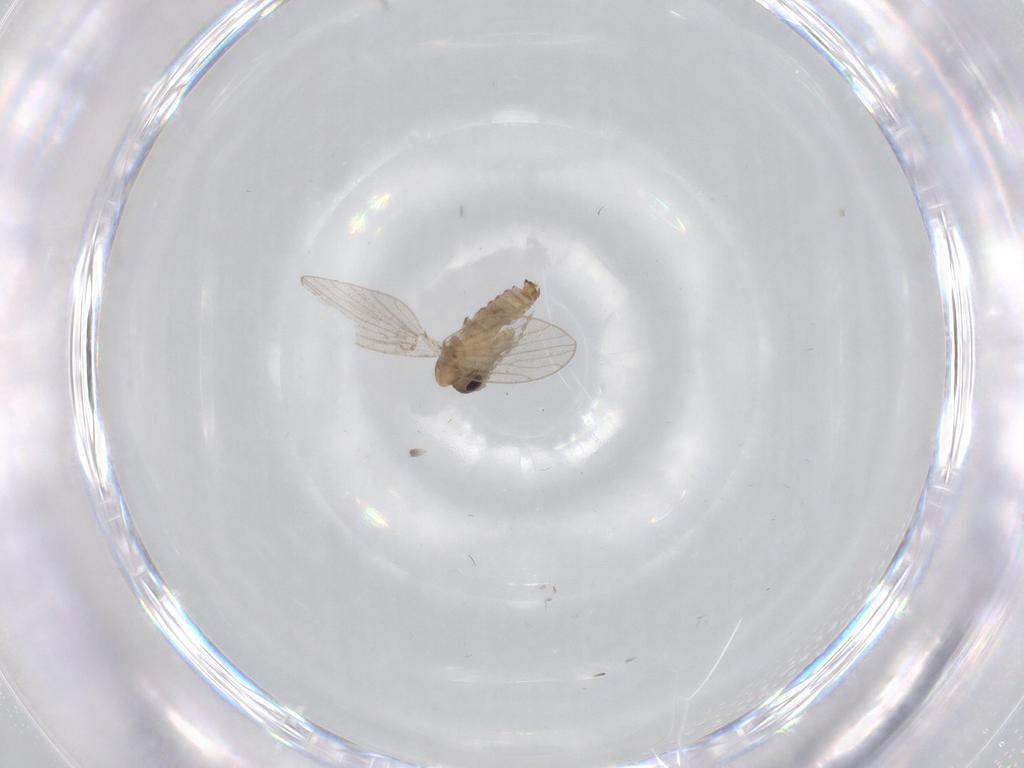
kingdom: Animalia
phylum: Arthropoda
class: Insecta
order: Diptera
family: Tabanidae
